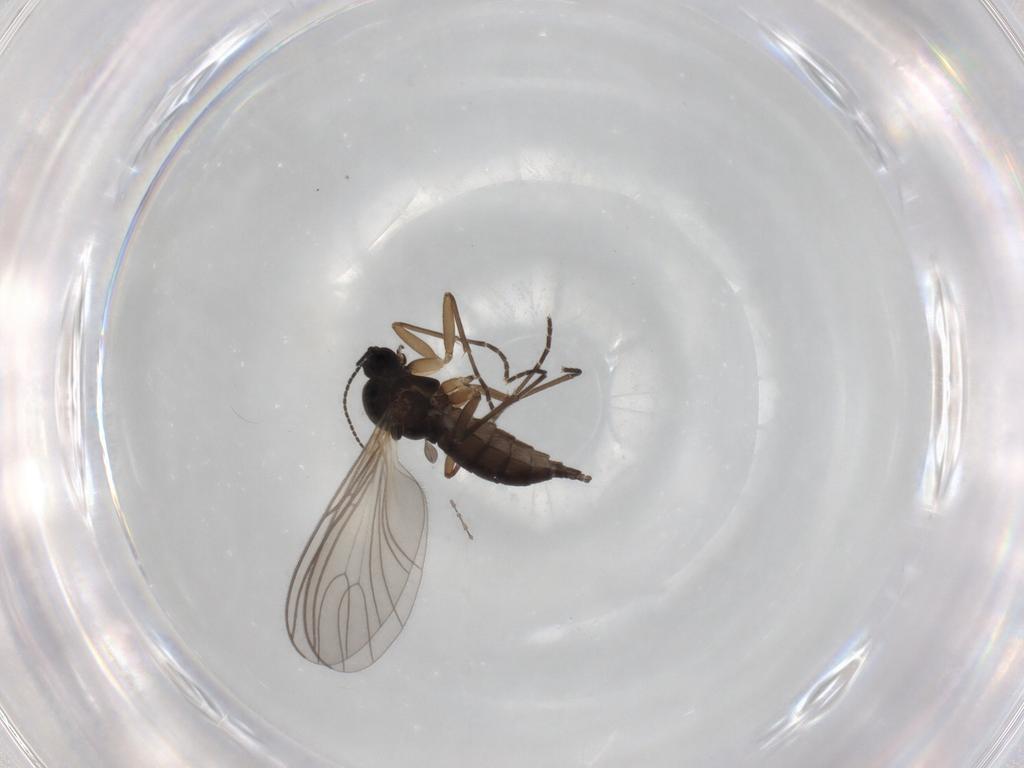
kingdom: Animalia
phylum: Arthropoda
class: Insecta
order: Diptera
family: Sciaridae
